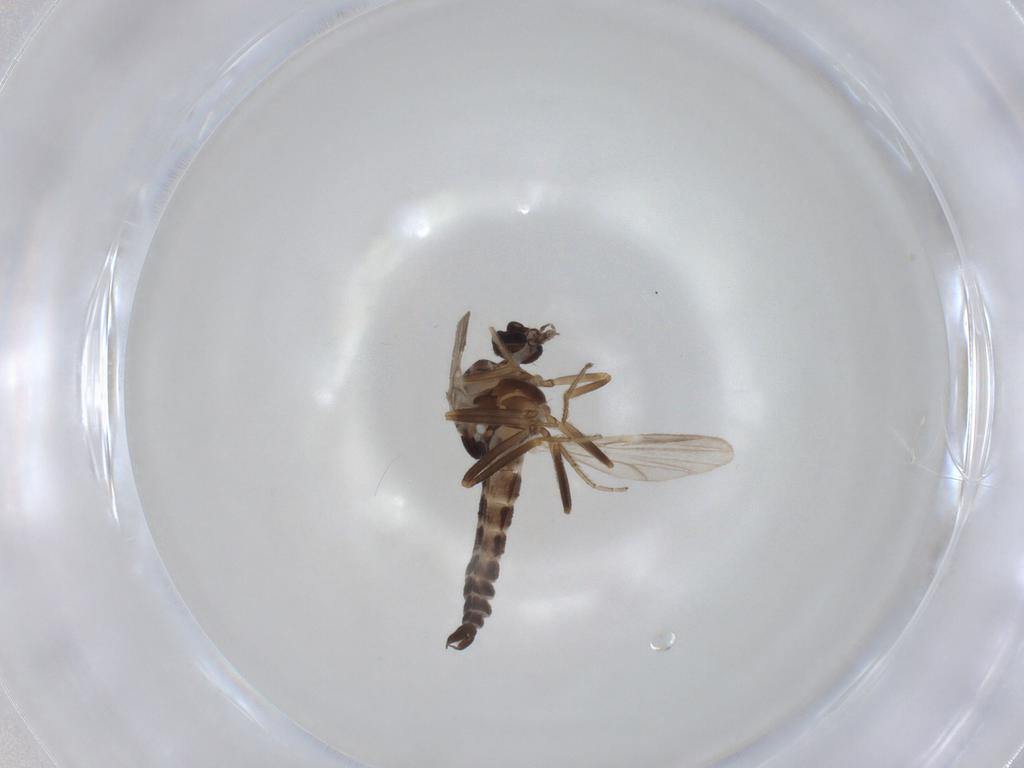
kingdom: Animalia
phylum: Arthropoda
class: Insecta
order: Diptera
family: Ceratopogonidae
